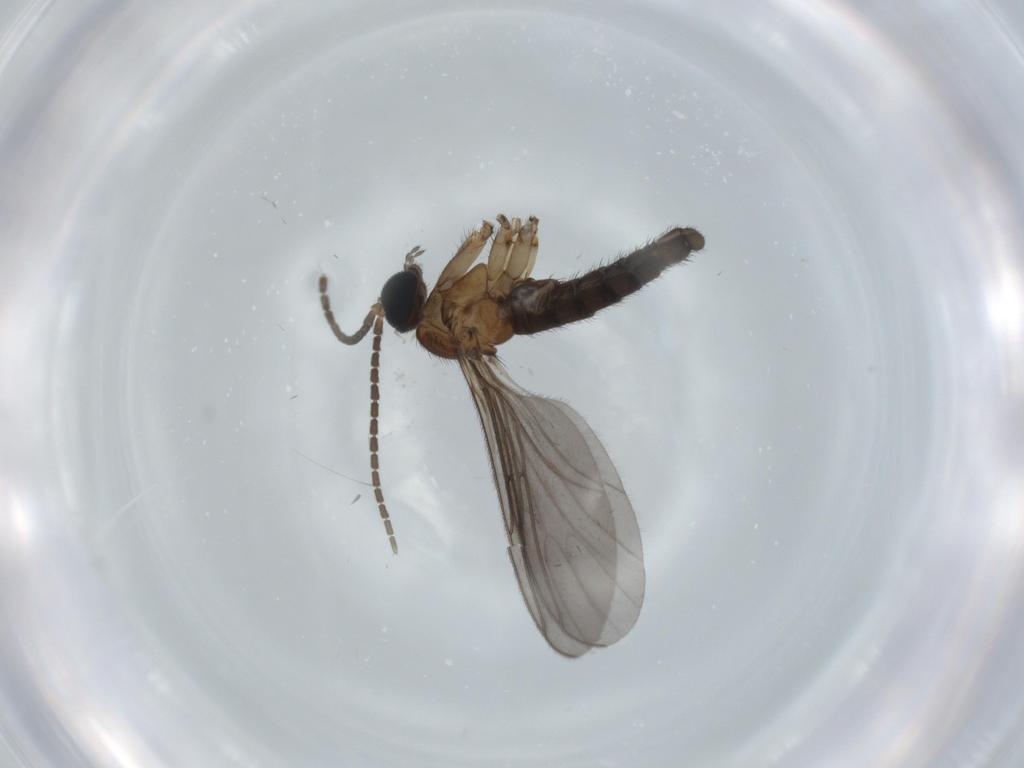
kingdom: Animalia
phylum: Arthropoda
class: Insecta
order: Diptera
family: Sciaridae
